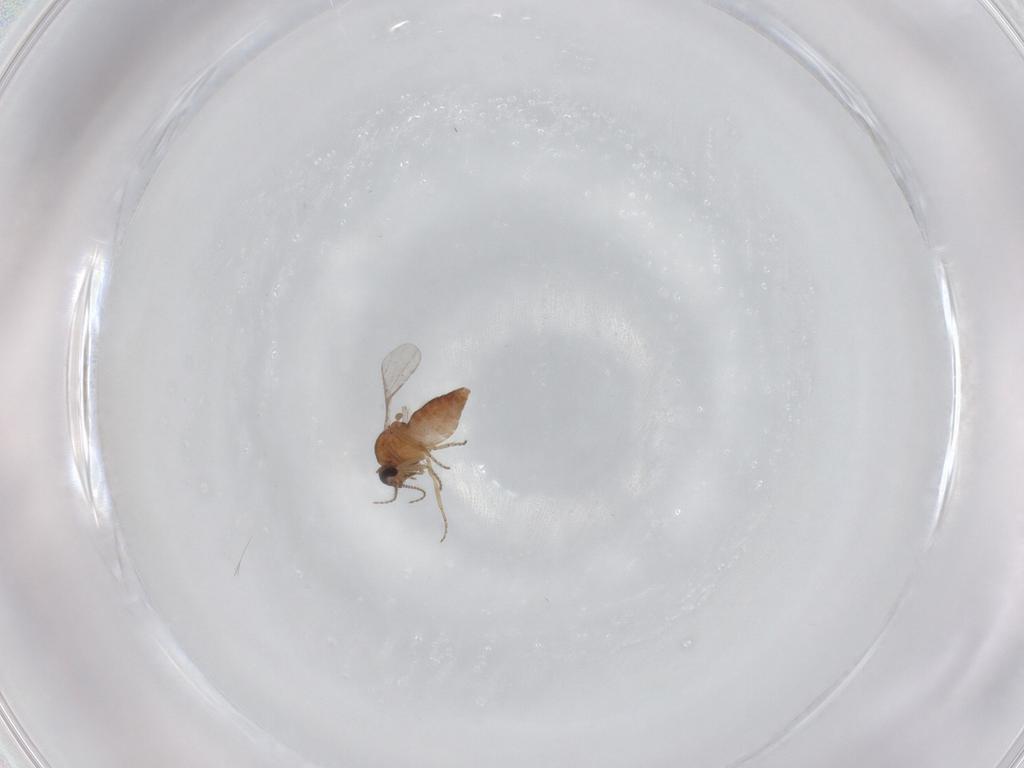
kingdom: Animalia
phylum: Arthropoda
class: Insecta
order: Diptera
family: Ceratopogonidae
